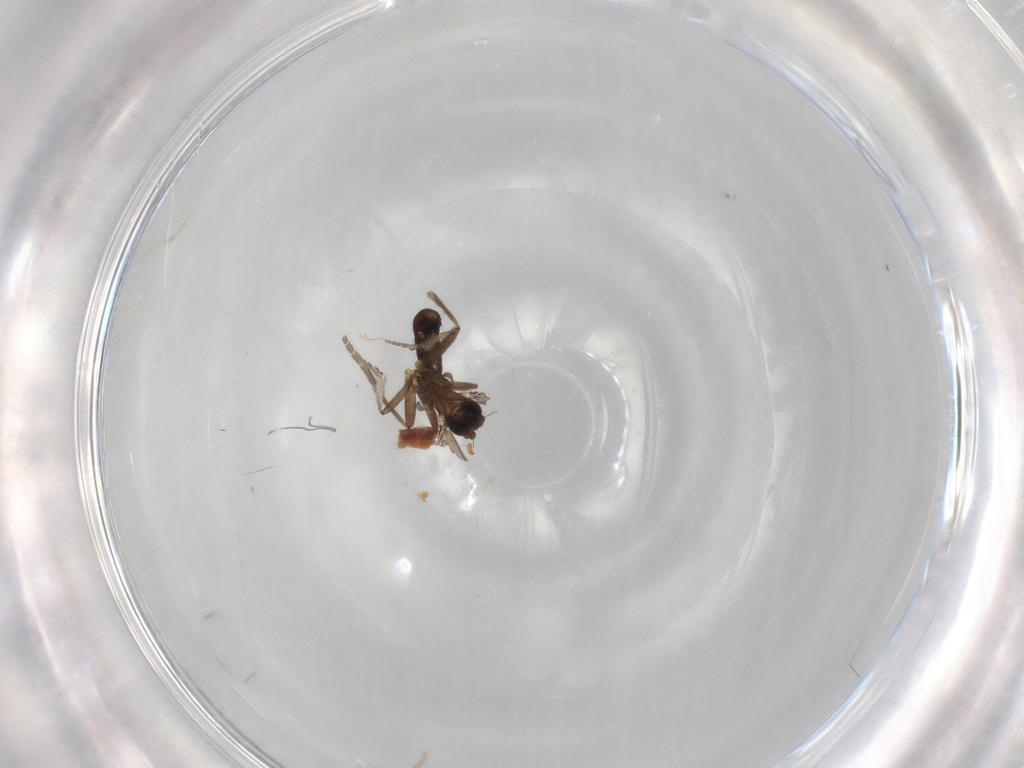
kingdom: Animalia
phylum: Arthropoda
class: Insecta
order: Diptera
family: Phoridae
